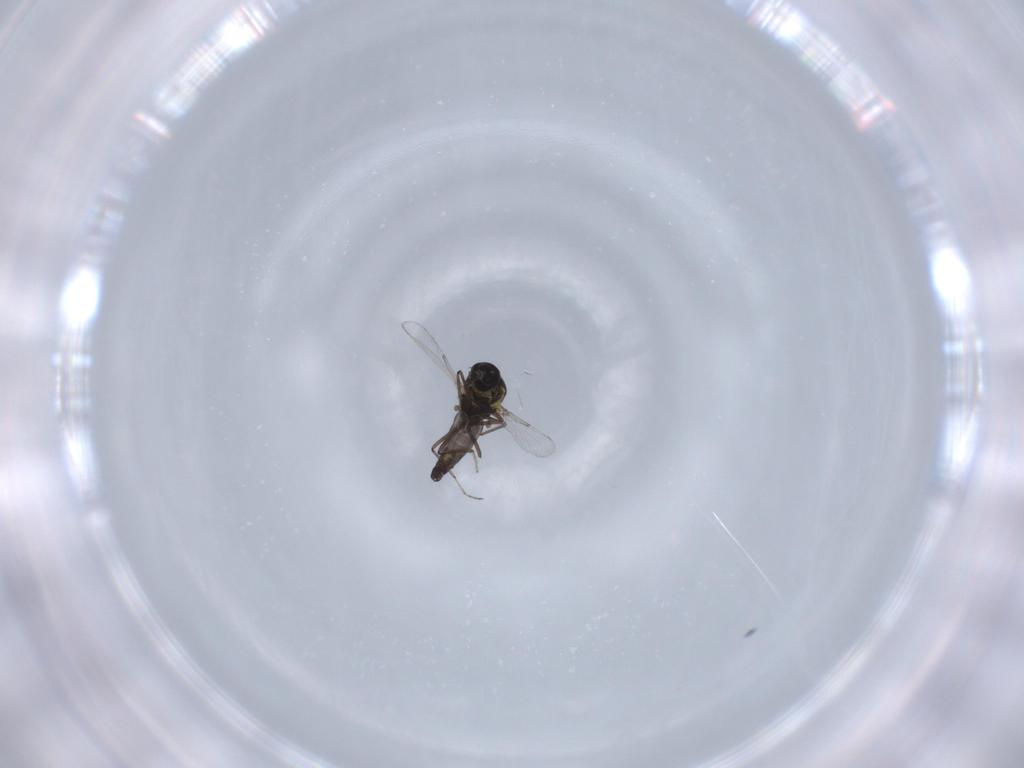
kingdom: Animalia
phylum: Arthropoda
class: Insecta
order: Diptera
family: Ceratopogonidae
